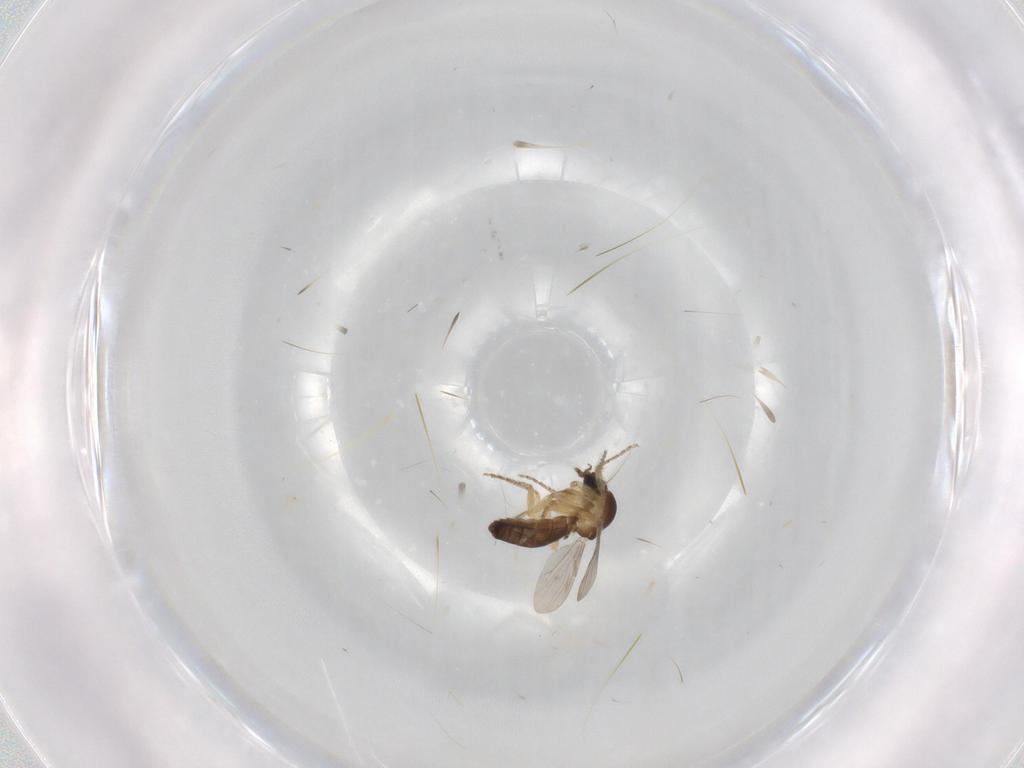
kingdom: Animalia
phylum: Arthropoda
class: Insecta
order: Diptera
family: Ceratopogonidae
